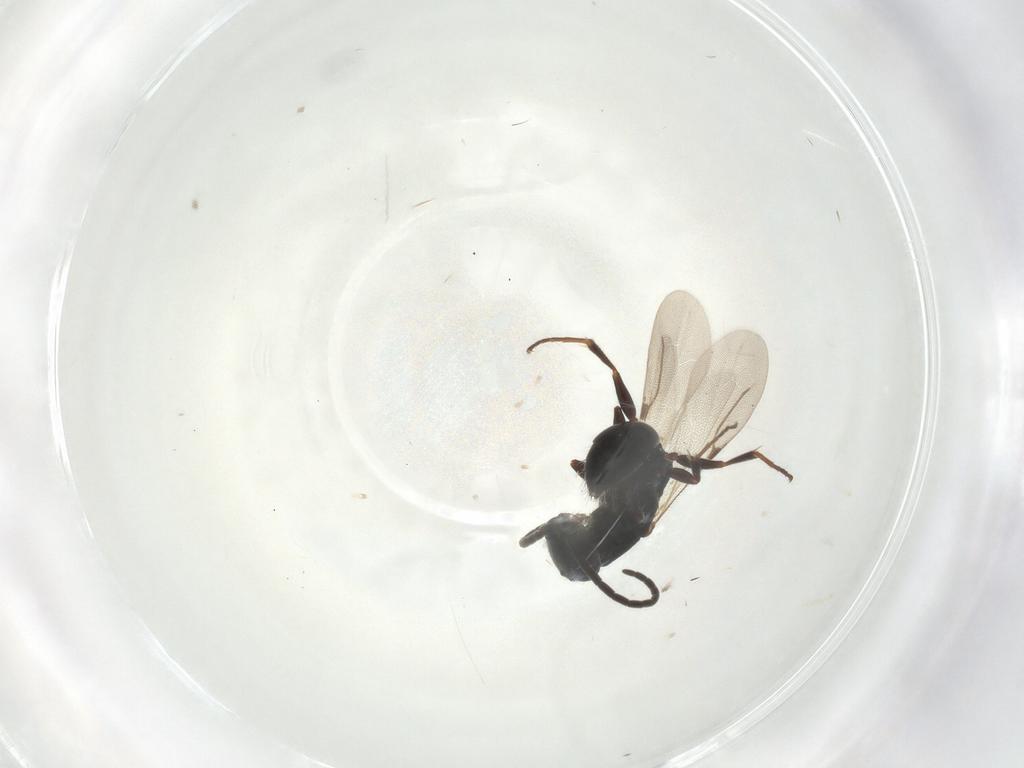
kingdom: Animalia
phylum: Arthropoda
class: Insecta
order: Hymenoptera
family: Bethylidae
